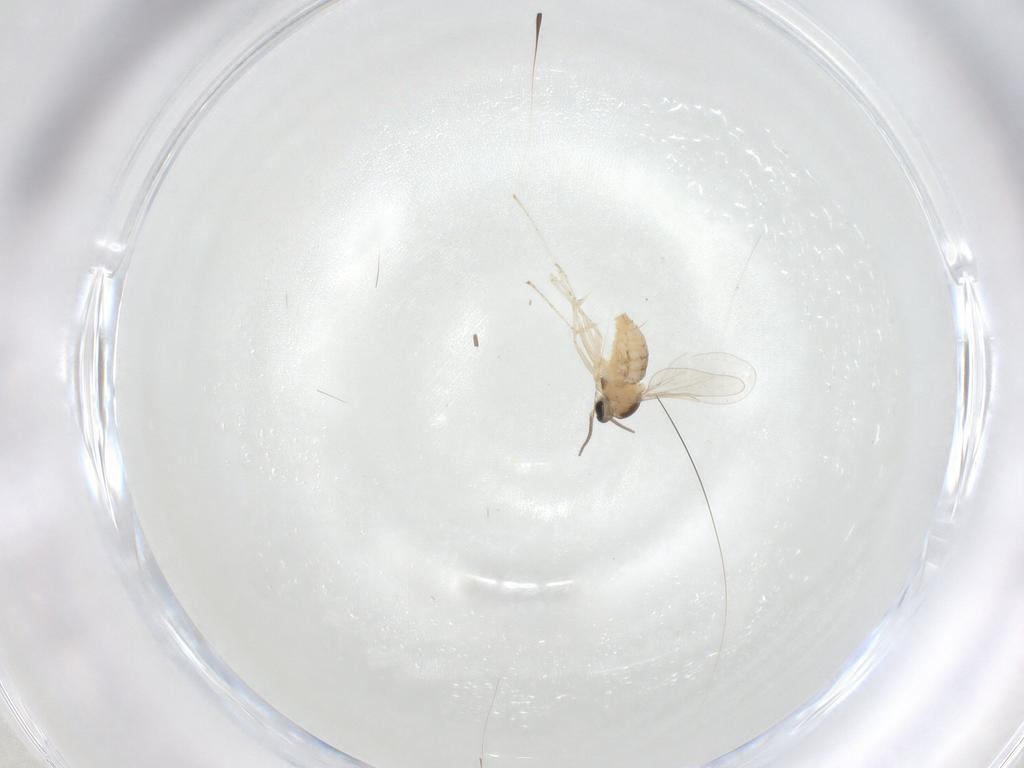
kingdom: Animalia
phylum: Arthropoda
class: Insecta
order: Diptera
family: Cecidomyiidae
